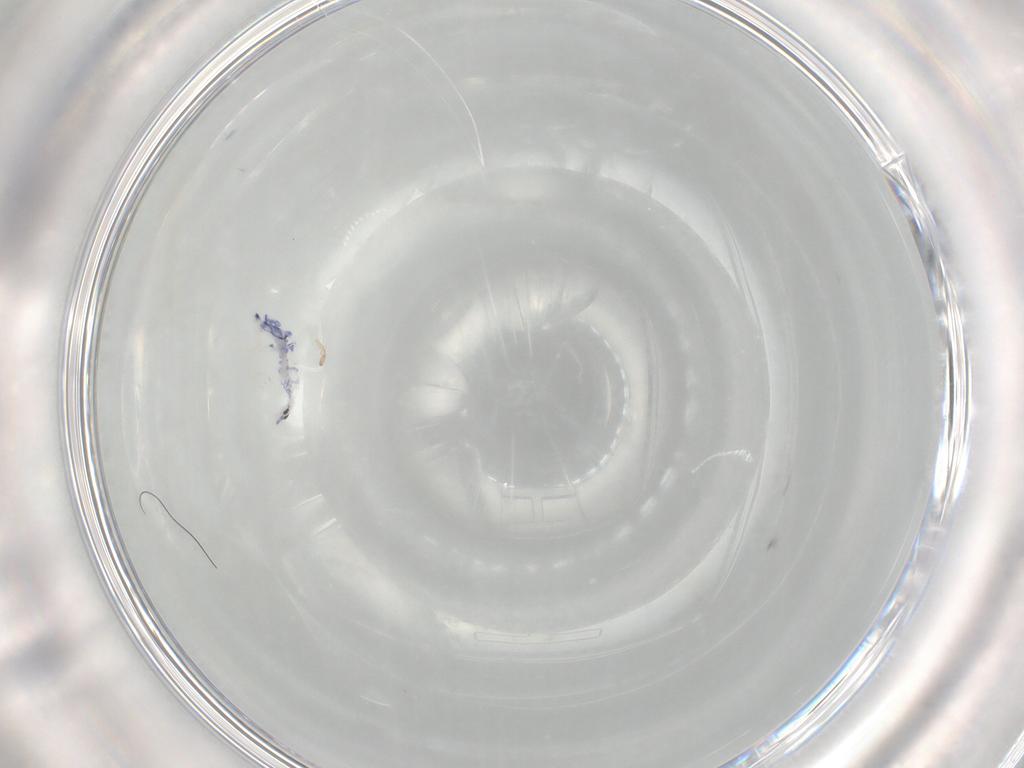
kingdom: Animalia
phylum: Arthropoda
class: Collembola
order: Entomobryomorpha
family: Entomobryidae
